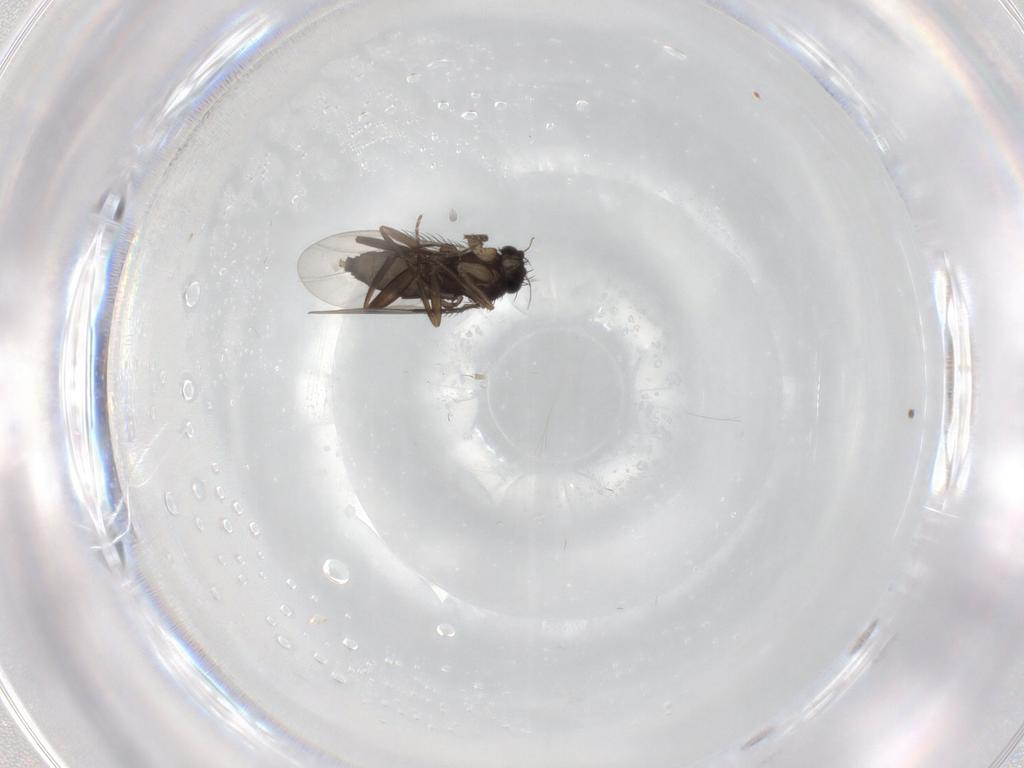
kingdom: Animalia
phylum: Arthropoda
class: Insecta
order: Diptera
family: Phoridae
